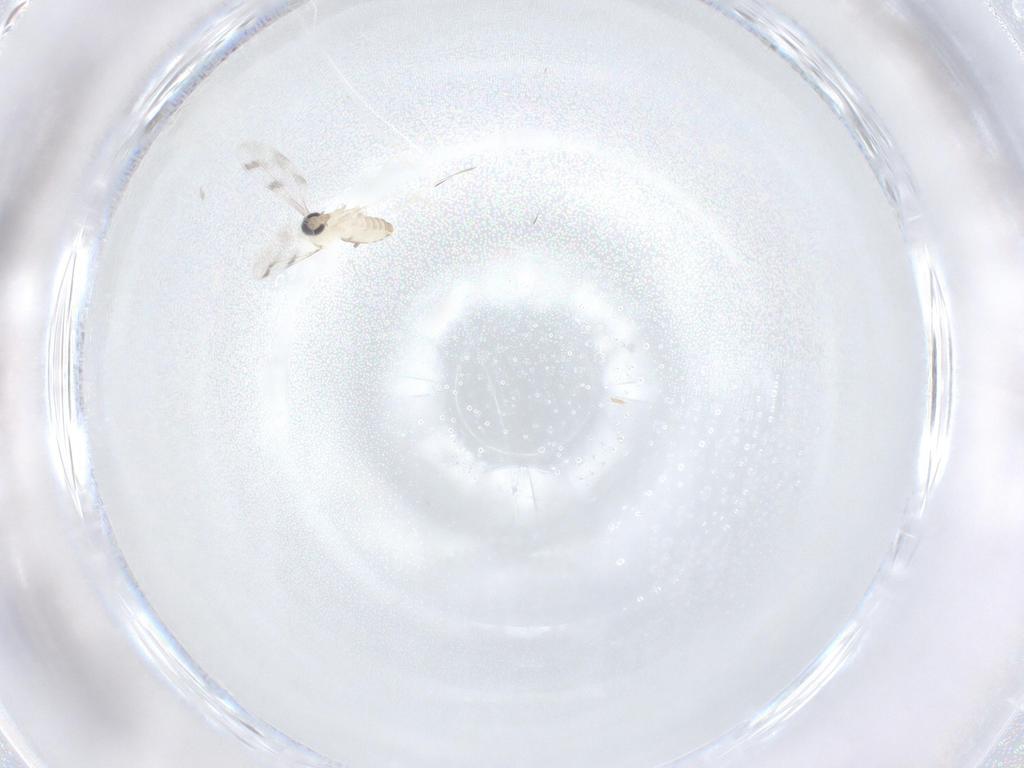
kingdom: Animalia
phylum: Arthropoda
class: Insecta
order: Diptera
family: Cecidomyiidae
